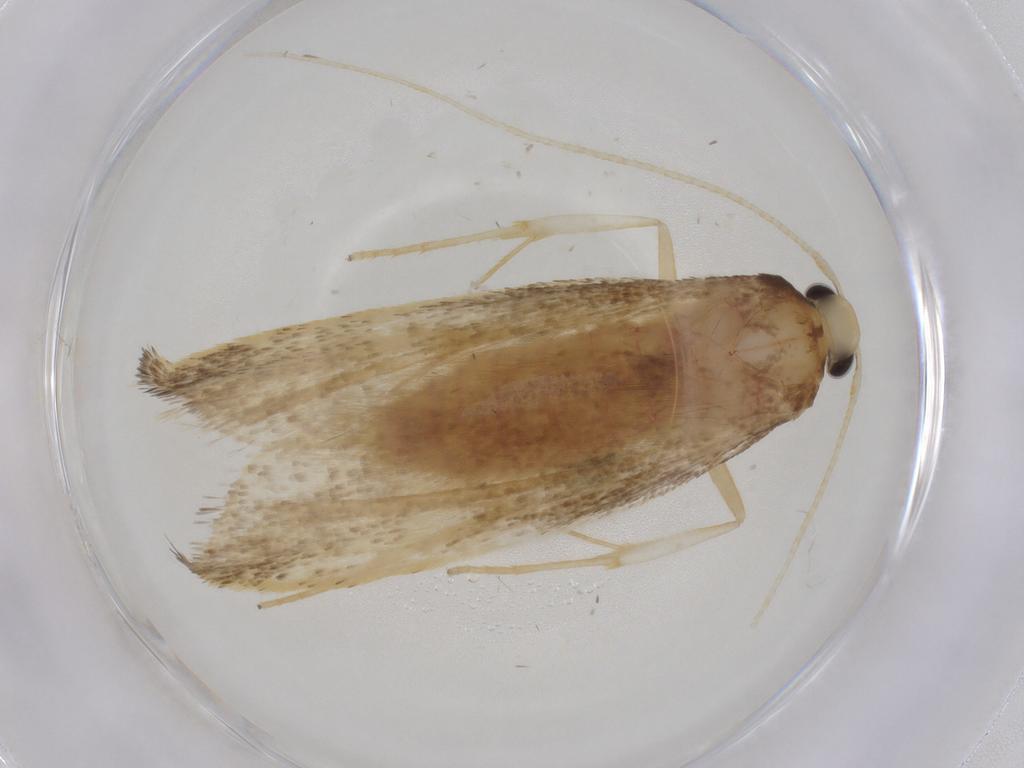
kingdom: Animalia
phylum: Arthropoda
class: Insecta
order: Lepidoptera
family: Lecithoceridae
